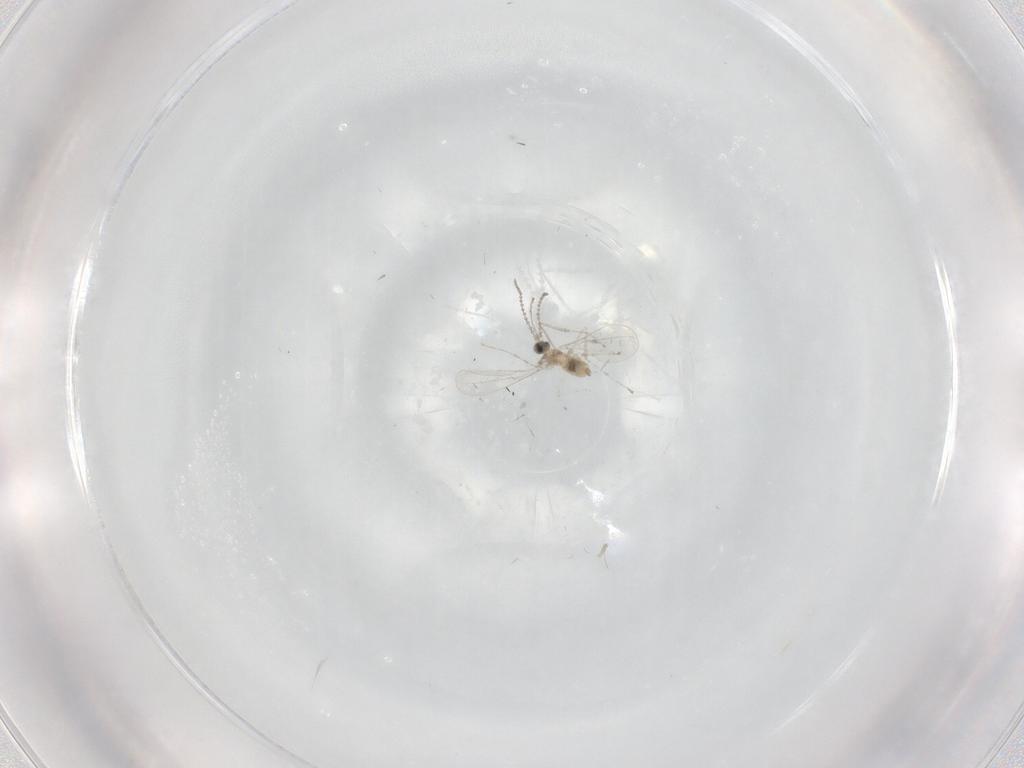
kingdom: Animalia
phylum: Arthropoda
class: Insecta
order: Diptera
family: Cecidomyiidae
